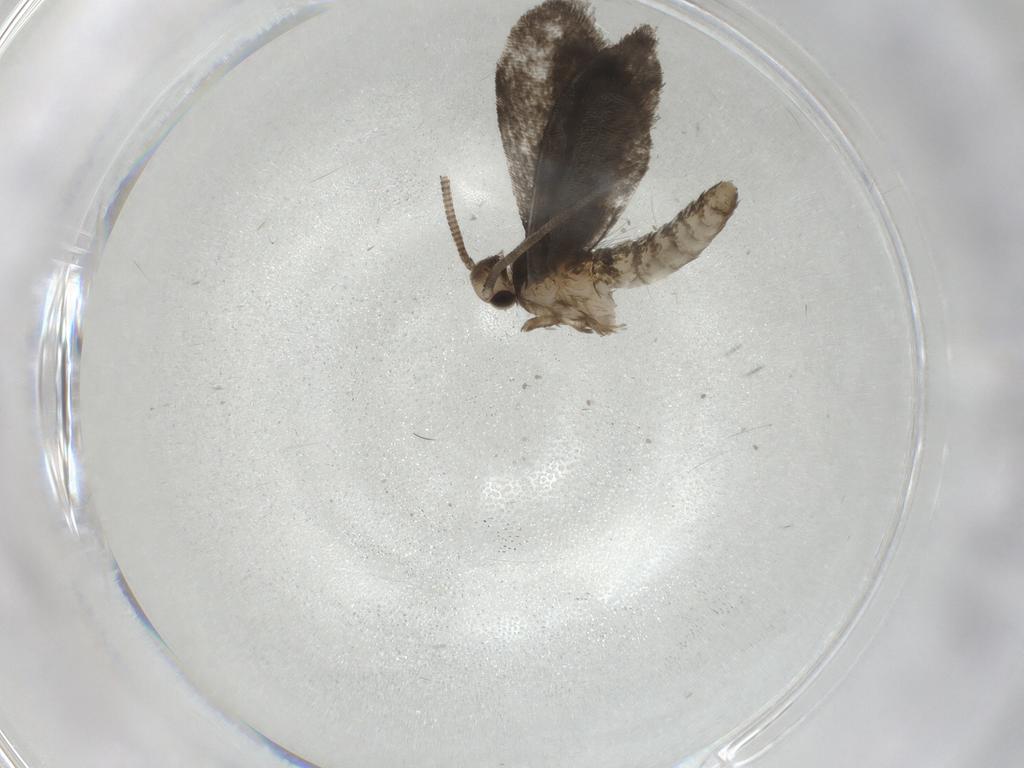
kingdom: Animalia
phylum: Arthropoda
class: Insecta
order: Lepidoptera
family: Nymphalidae
